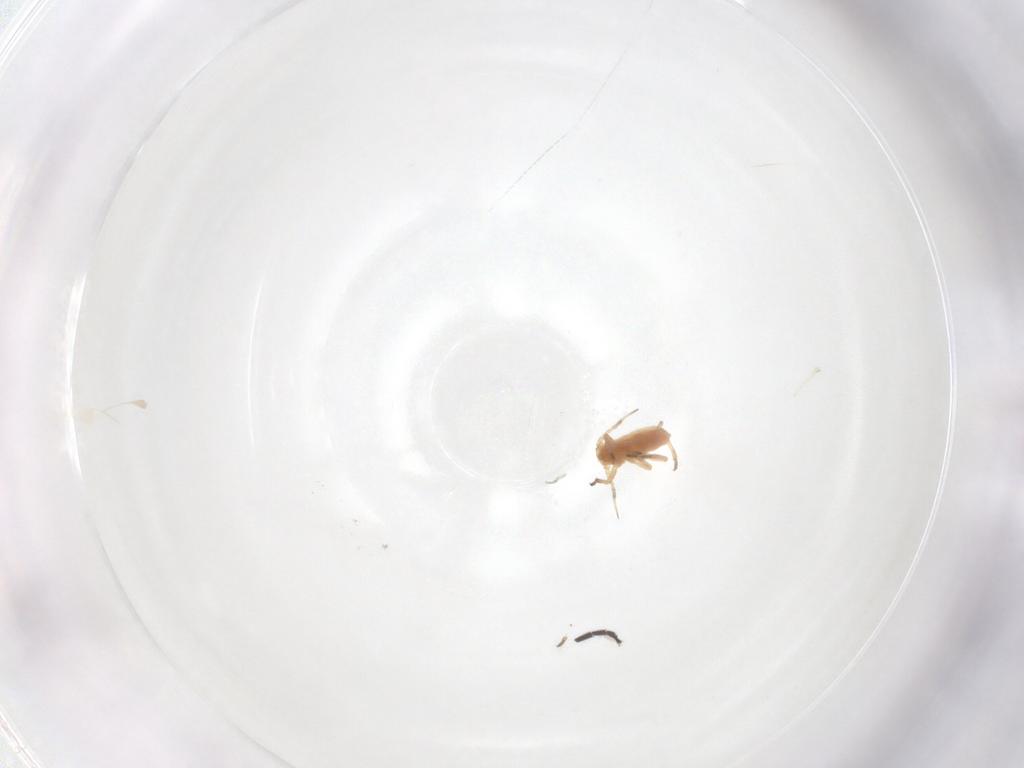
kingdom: Animalia
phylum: Arthropoda
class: Insecta
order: Hemiptera
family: Aphididae
